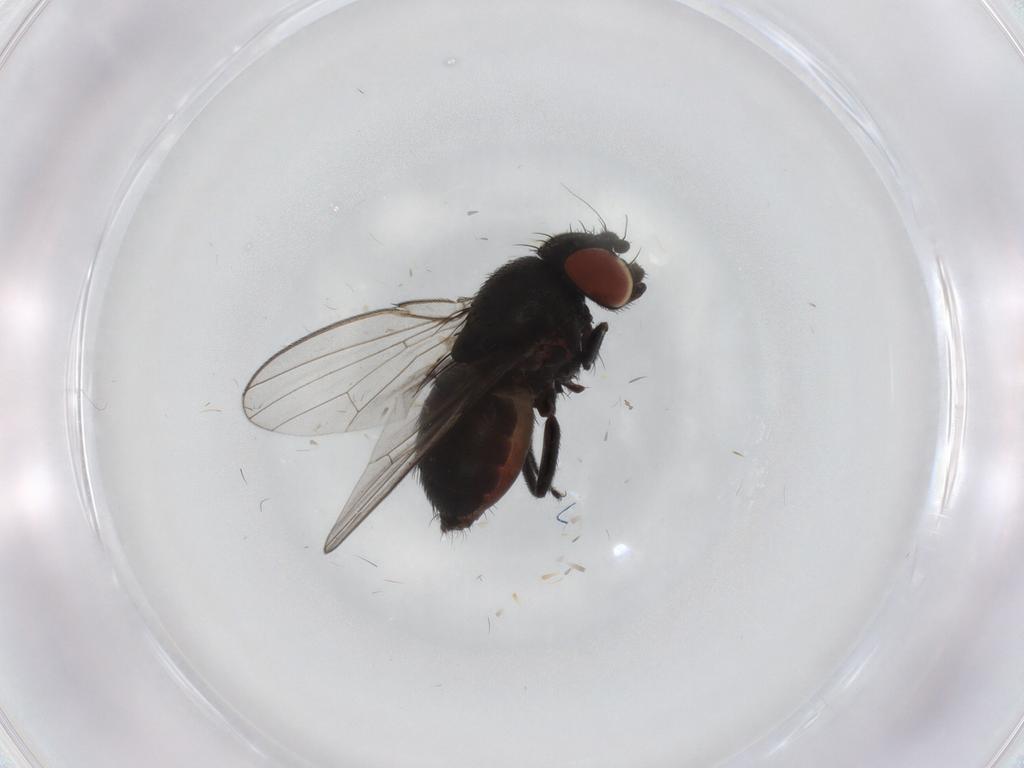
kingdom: Animalia
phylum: Arthropoda
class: Insecta
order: Diptera
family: Milichiidae
